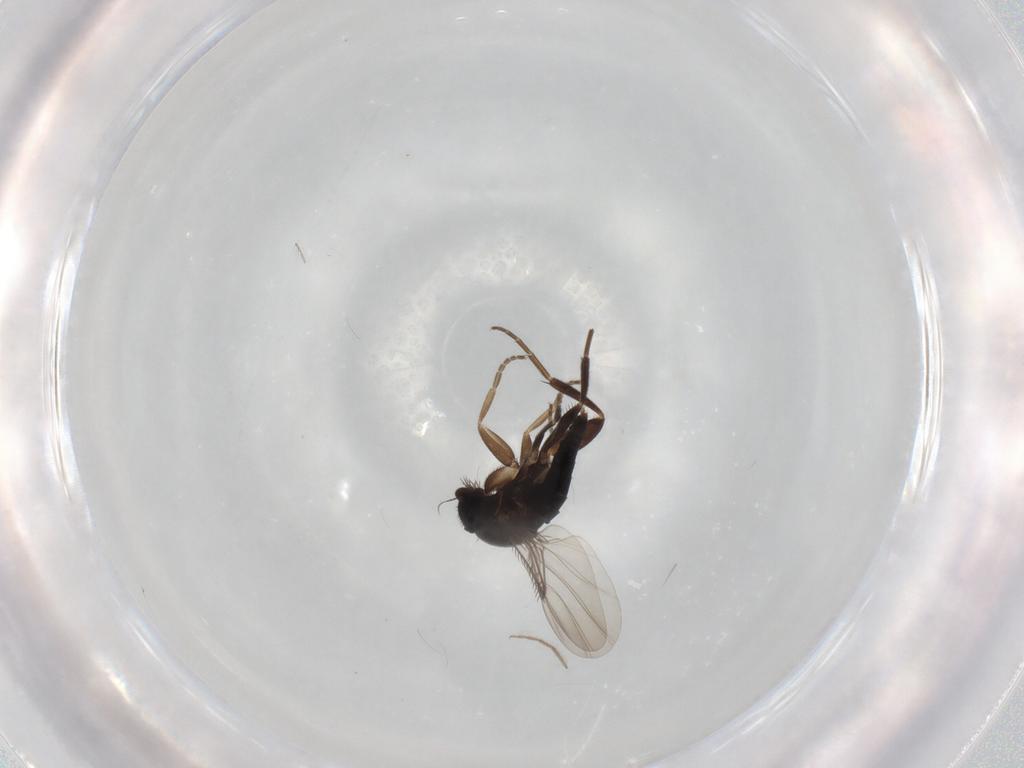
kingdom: Animalia
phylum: Arthropoda
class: Insecta
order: Diptera
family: Phoridae
